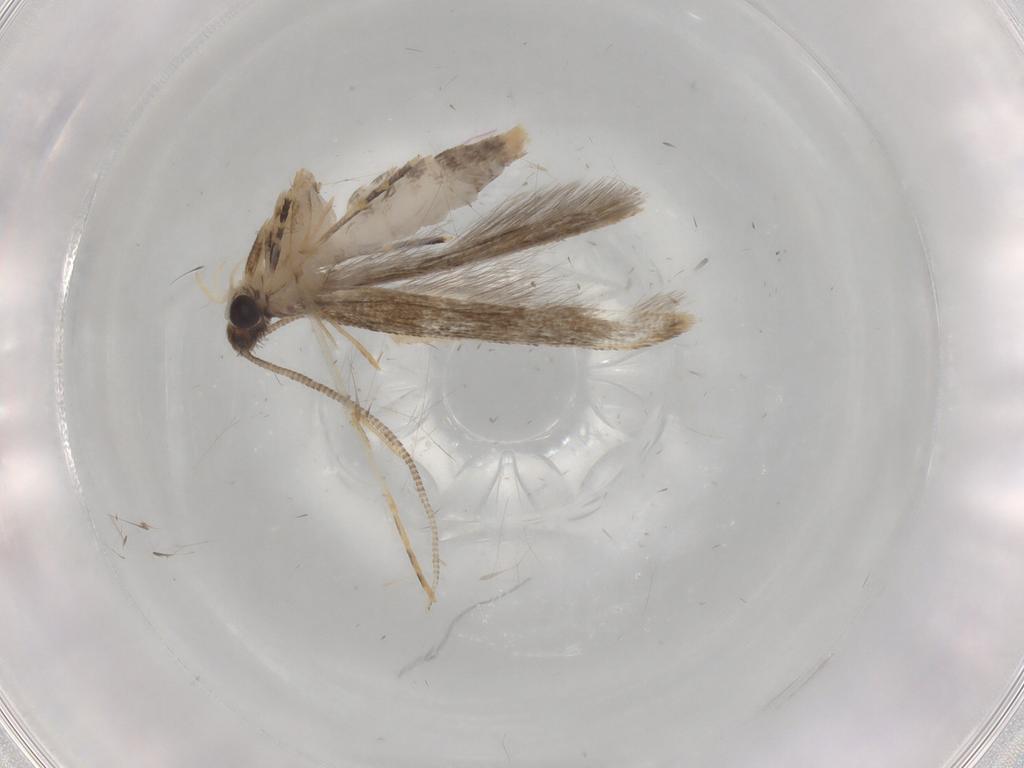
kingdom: Animalia
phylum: Arthropoda
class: Insecta
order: Lepidoptera
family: Tineidae
